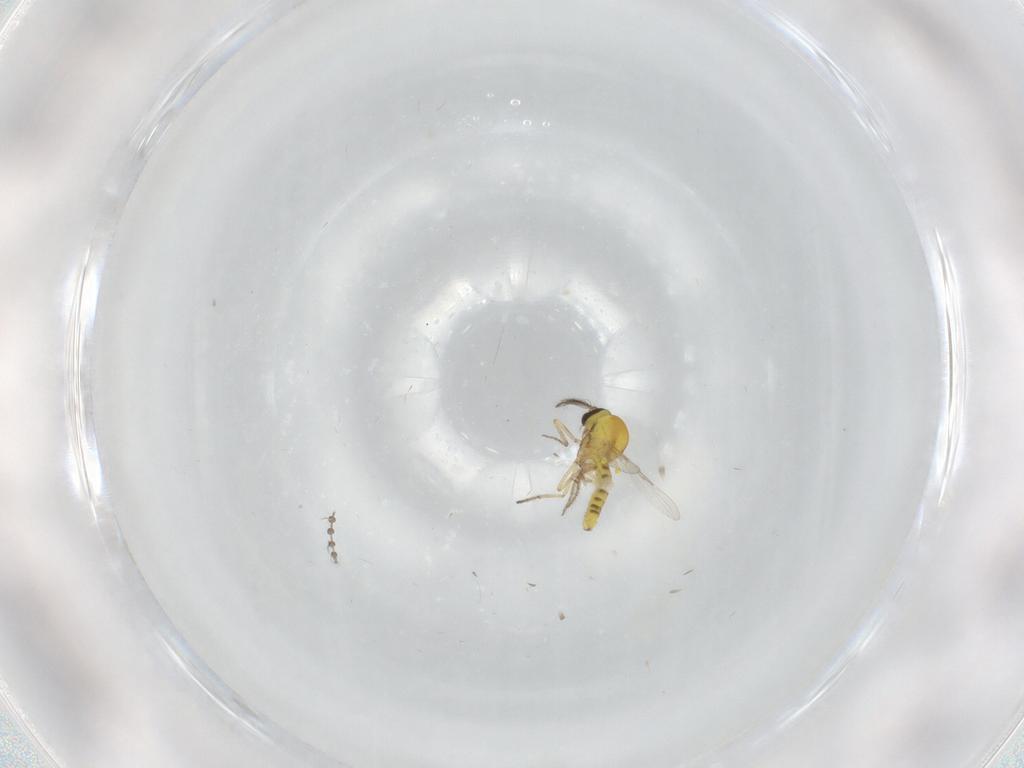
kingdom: Animalia
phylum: Arthropoda
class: Insecta
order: Diptera
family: Ceratopogonidae
